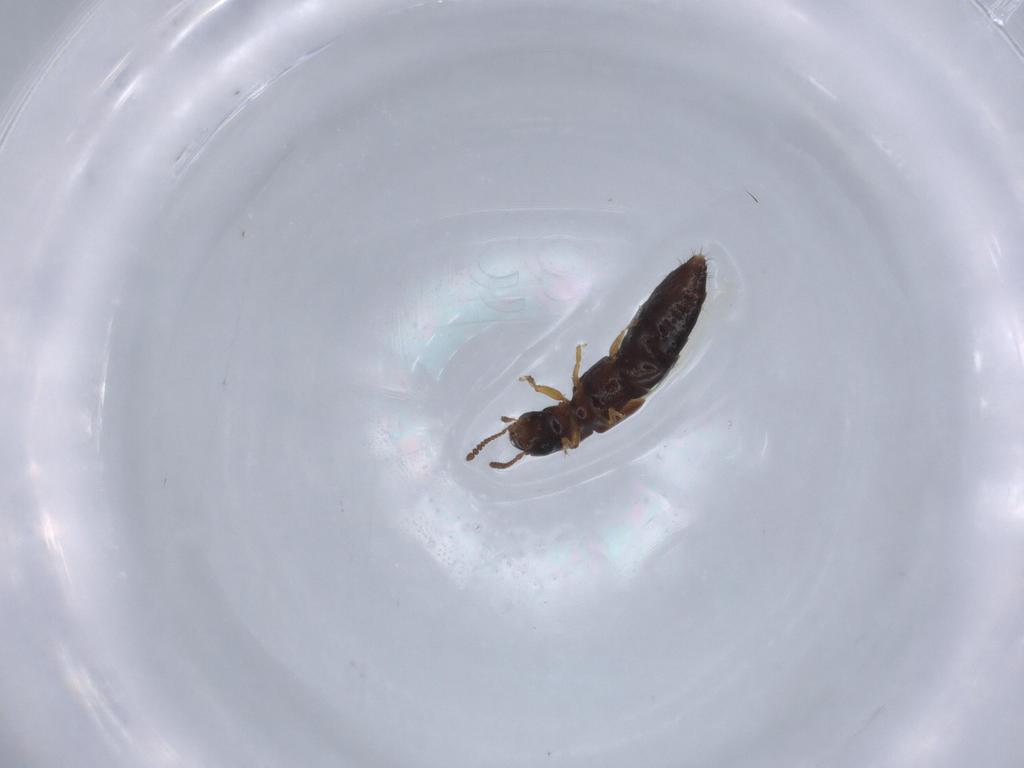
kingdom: Animalia
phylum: Arthropoda
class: Insecta
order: Coleoptera
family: Staphylinidae
